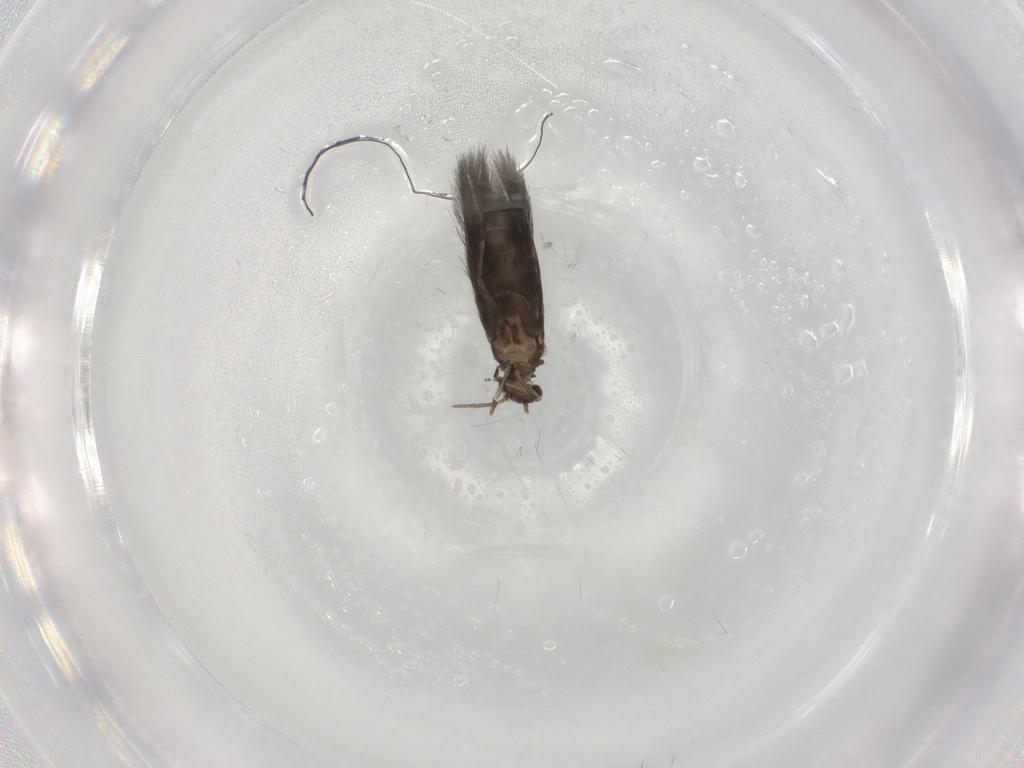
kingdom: Animalia
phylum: Arthropoda
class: Insecta
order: Trichoptera
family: Hydroptilidae
